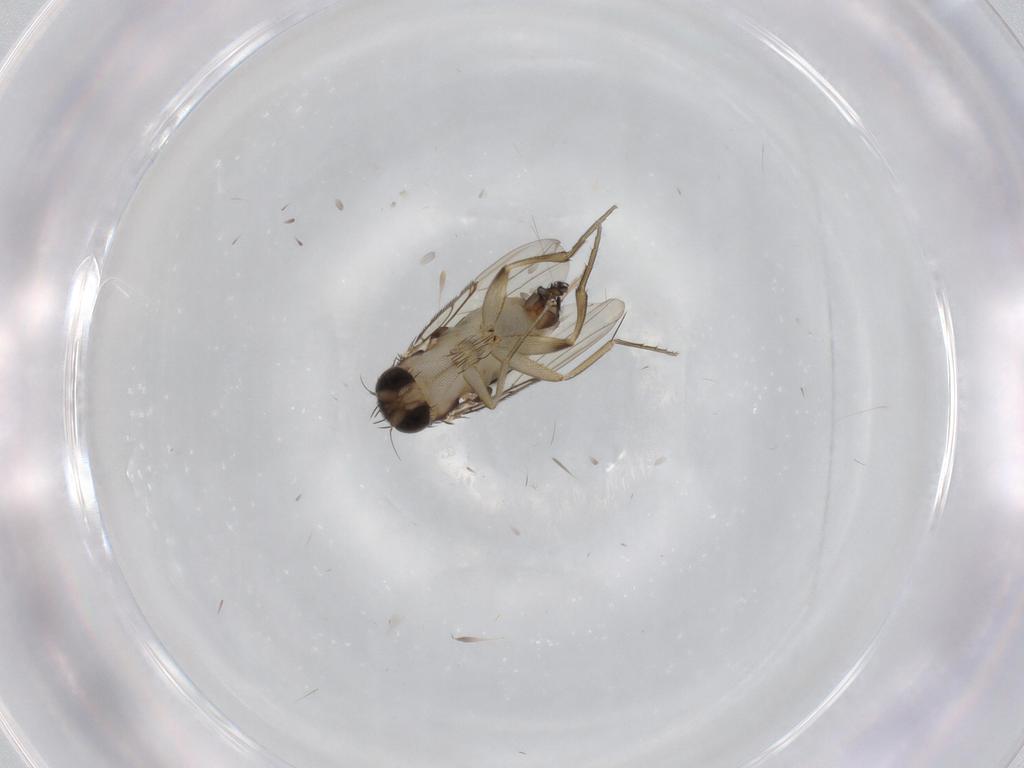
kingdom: Animalia
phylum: Arthropoda
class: Insecta
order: Diptera
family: Phoridae
